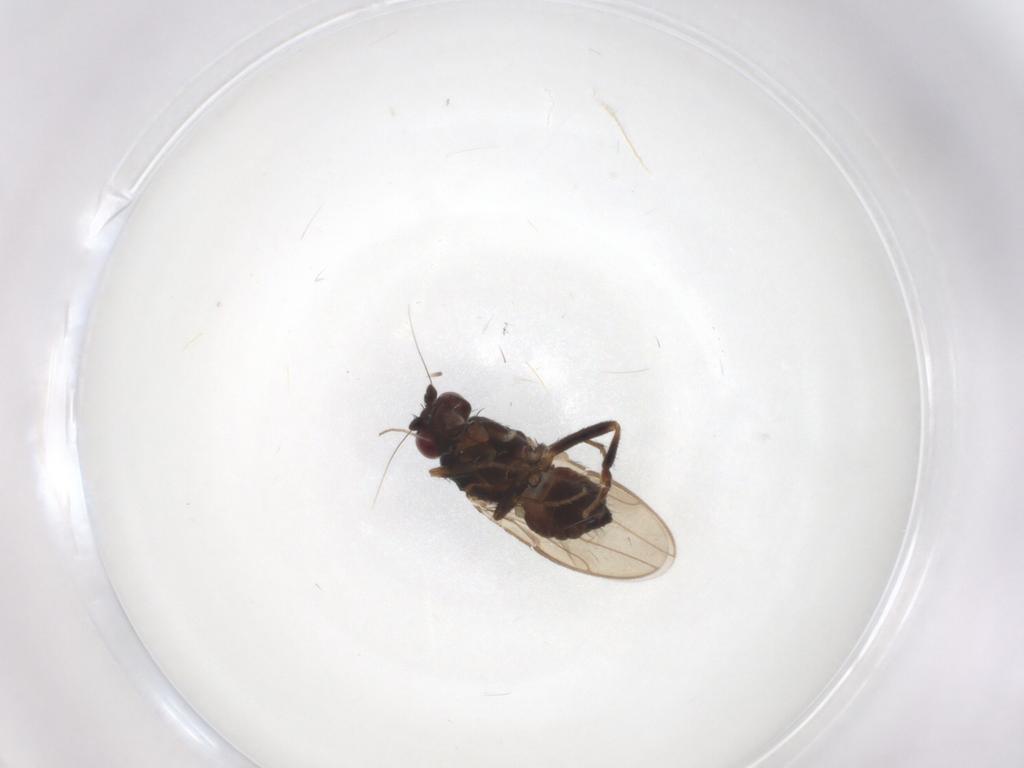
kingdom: Animalia
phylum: Arthropoda
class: Insecta
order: Diptera
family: Chironomidae
